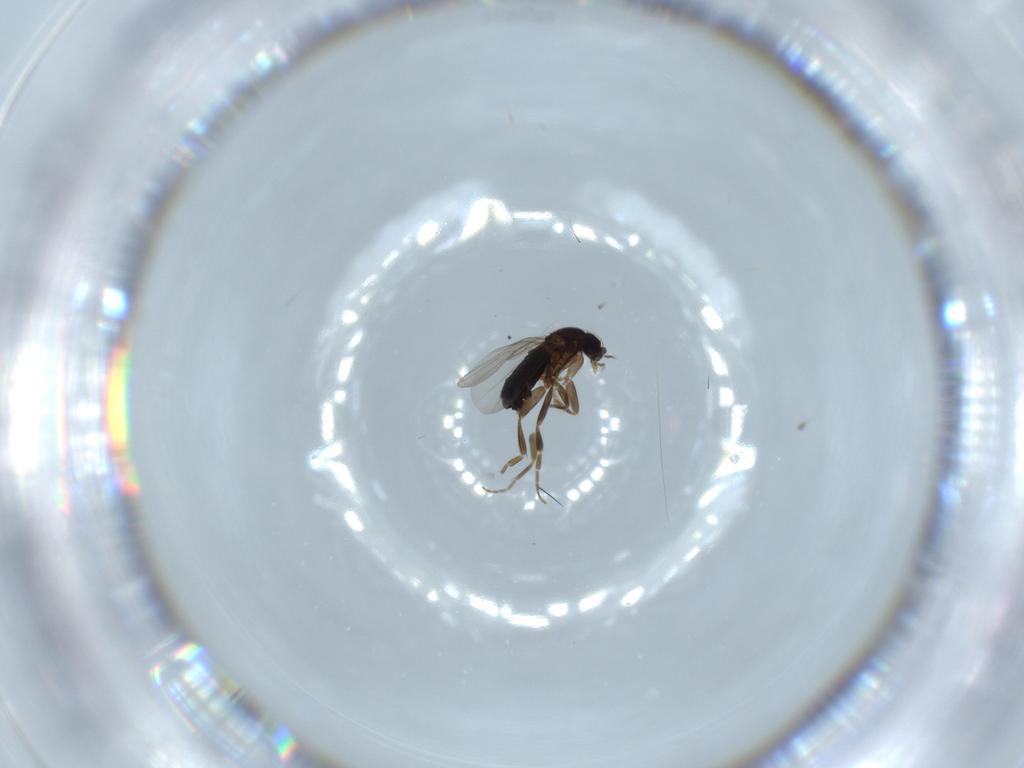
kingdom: Animalia
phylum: Arthropoda
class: Insecta
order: Diptera
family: Phoridae
